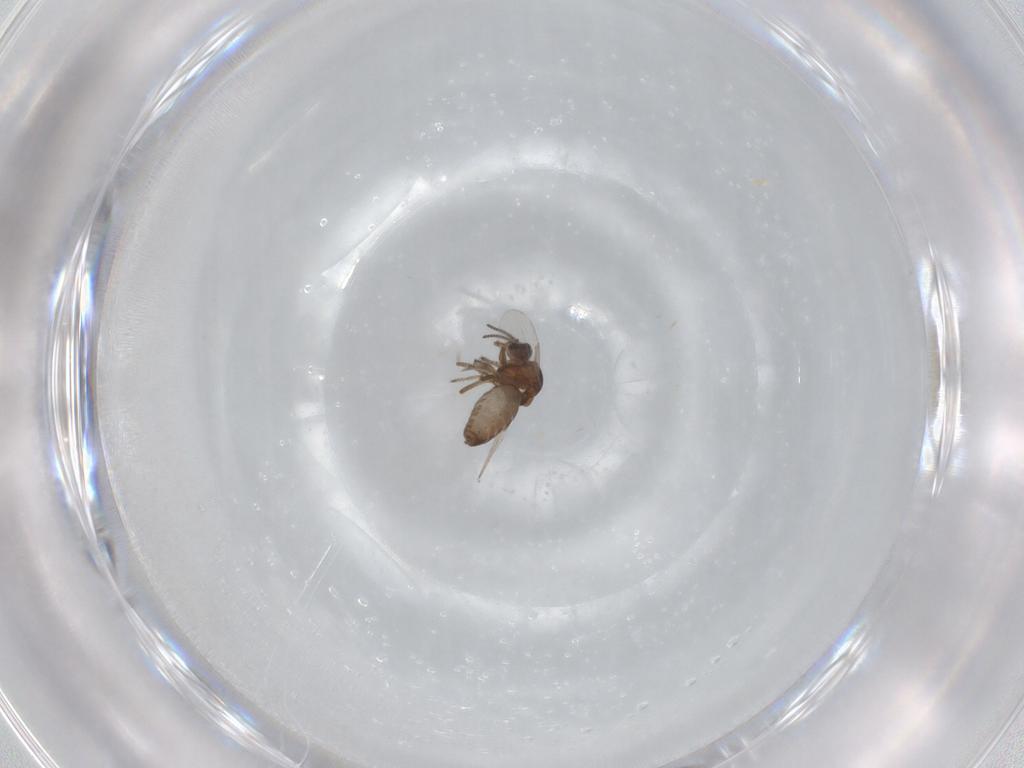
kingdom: Animalia
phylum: Arthropoda
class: Insecta
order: Diptera
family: Ceratopogonidae
